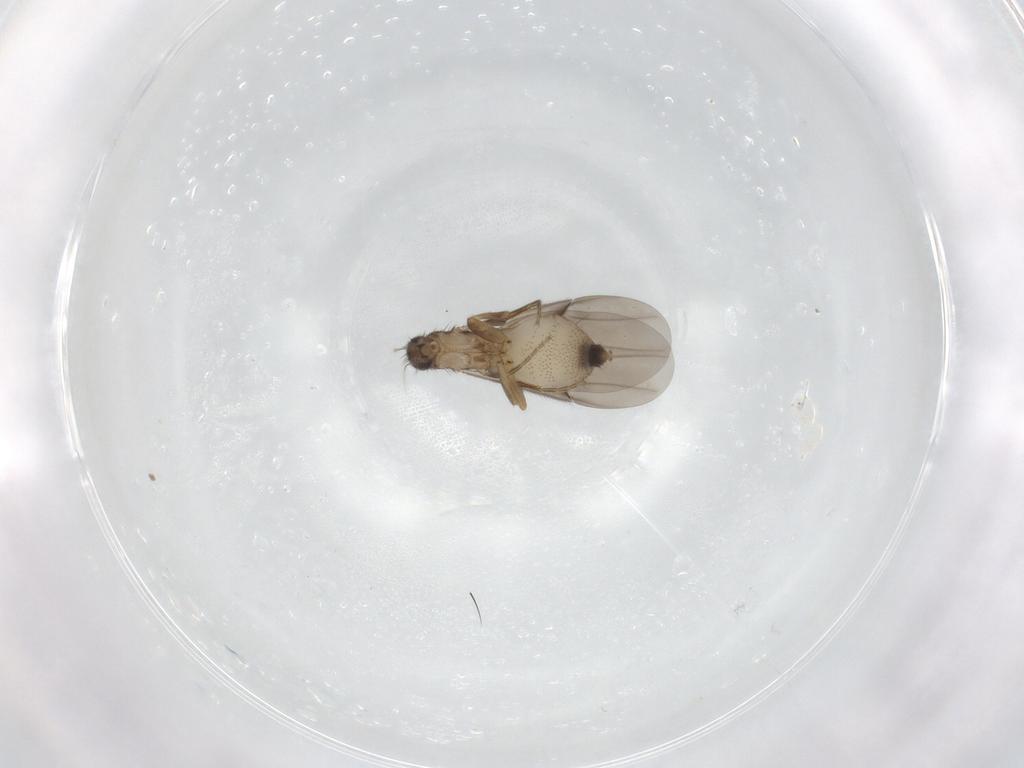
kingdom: Animalia
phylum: Arthropoda
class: Insecta
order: Diptera
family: Phoridae
